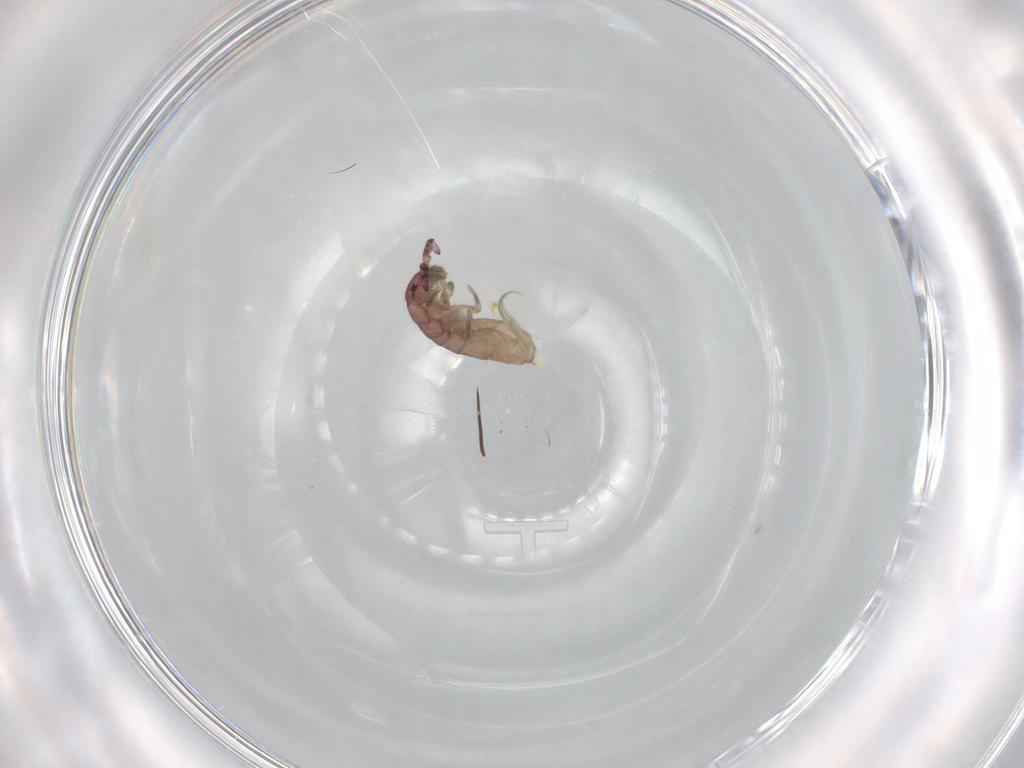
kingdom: Animalia
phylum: Arthropoda
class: Collembola
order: Entomobryomorpha
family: Isotomidae
